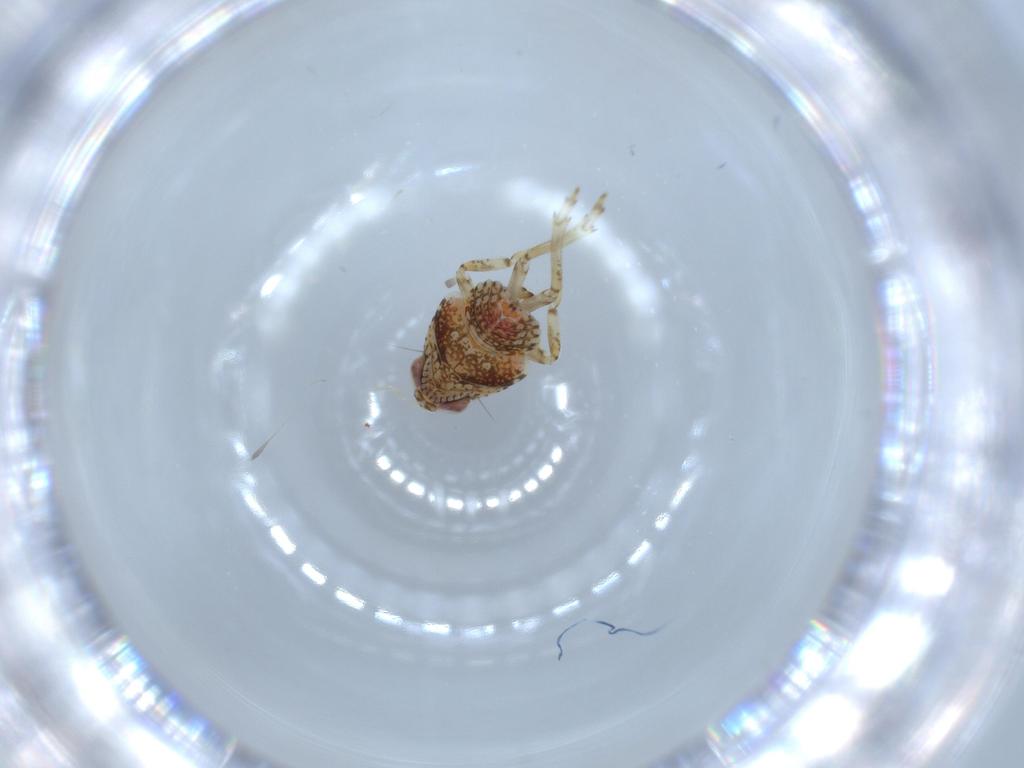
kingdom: Animalia
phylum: Arthropoda
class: Insecta
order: Hemiptera
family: Issidae
